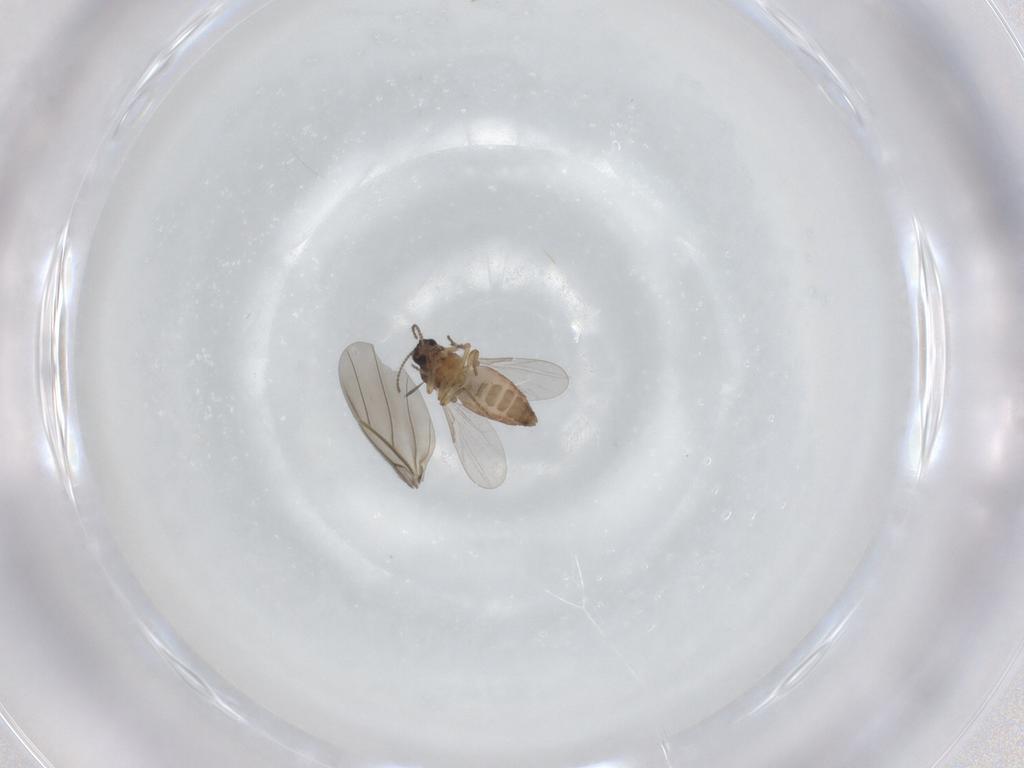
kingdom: Animalia
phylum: Arthropoda
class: Insecta
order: Diptera
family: Ceratopogonidae
